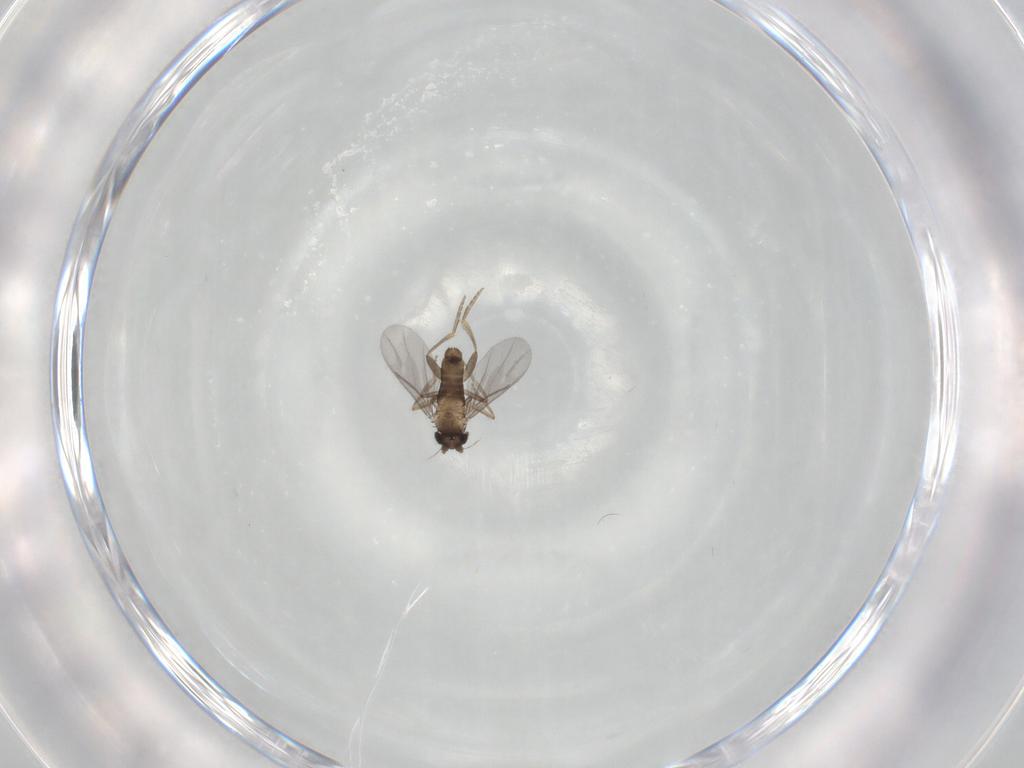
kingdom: Animalia
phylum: Arthropoda
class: Insecta
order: Diptera
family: Phoridae
